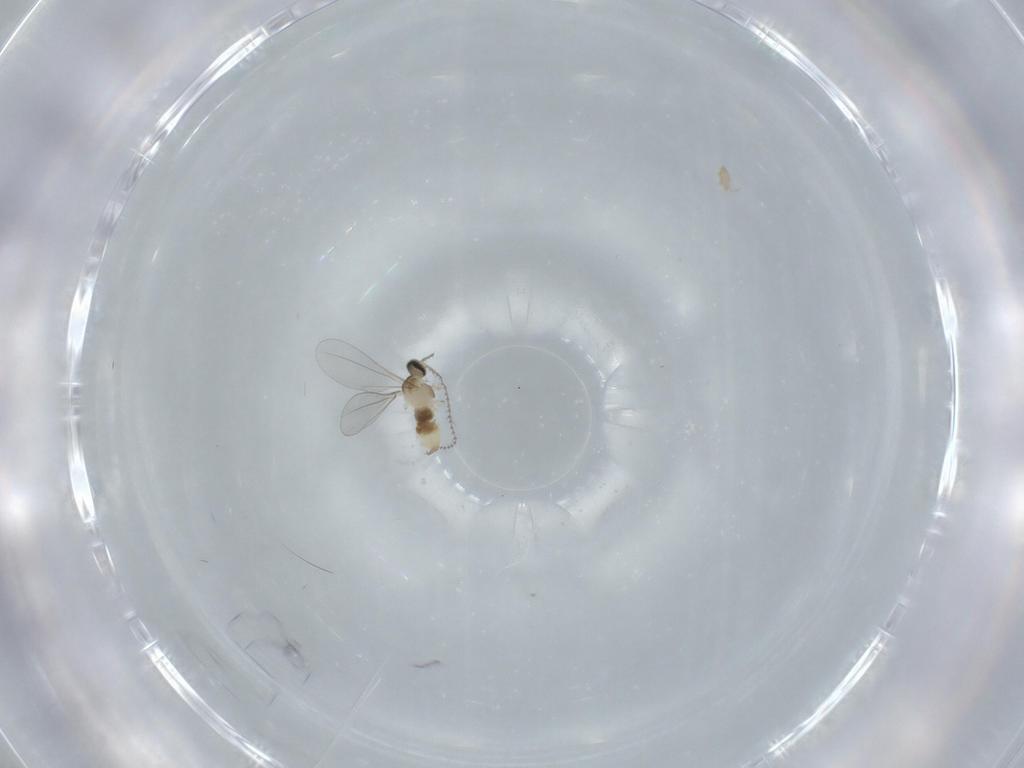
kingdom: Animalia
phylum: Arthropoda
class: Insecta
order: Diptera
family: Cecidomyiidae
